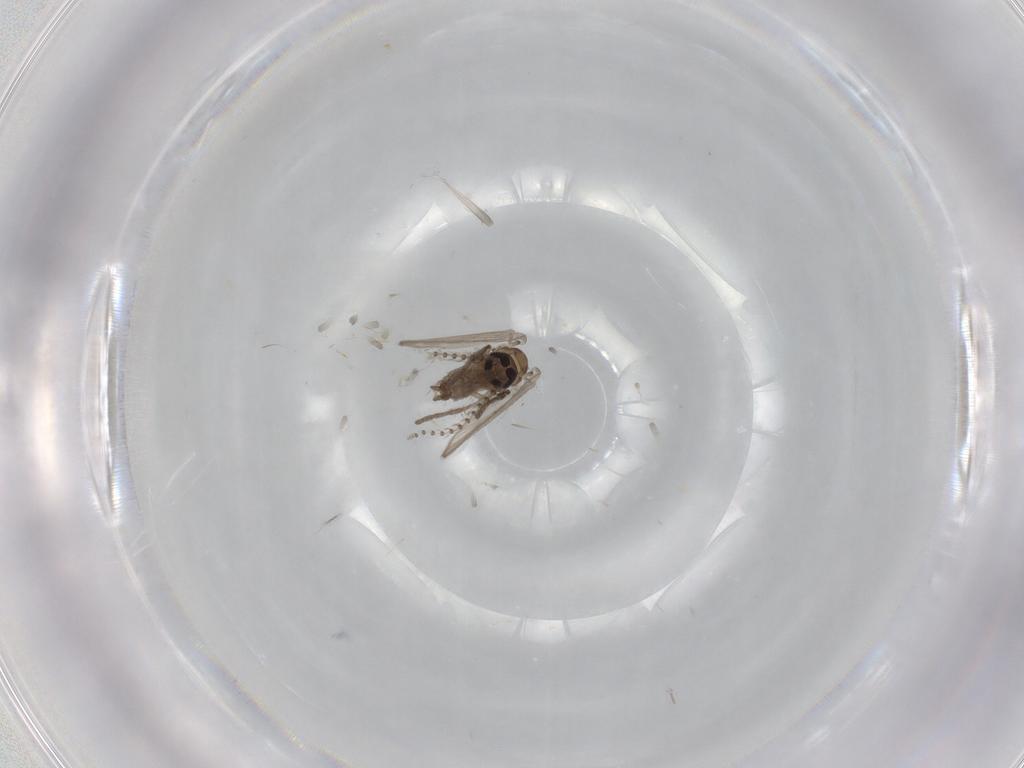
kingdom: Animalia
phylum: Arthropoda
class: Insecta
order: Diptera
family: Psychodidae
